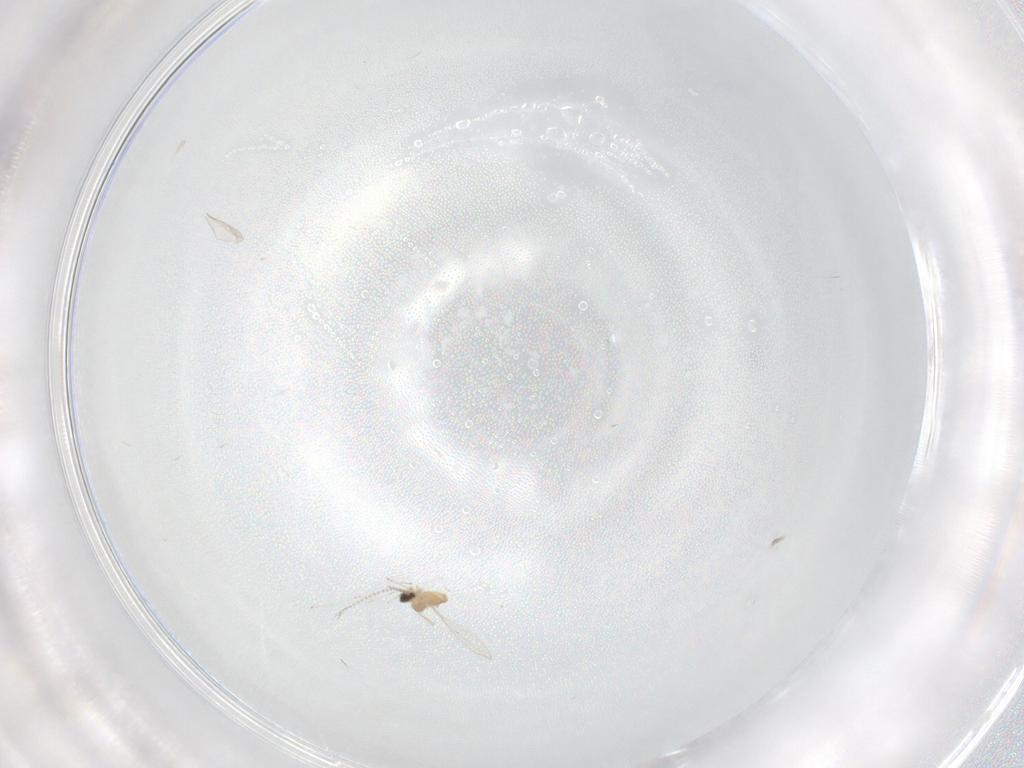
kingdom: Animalia
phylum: Arthropoda
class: Insecta
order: Diptera
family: Cecidomyiidae
